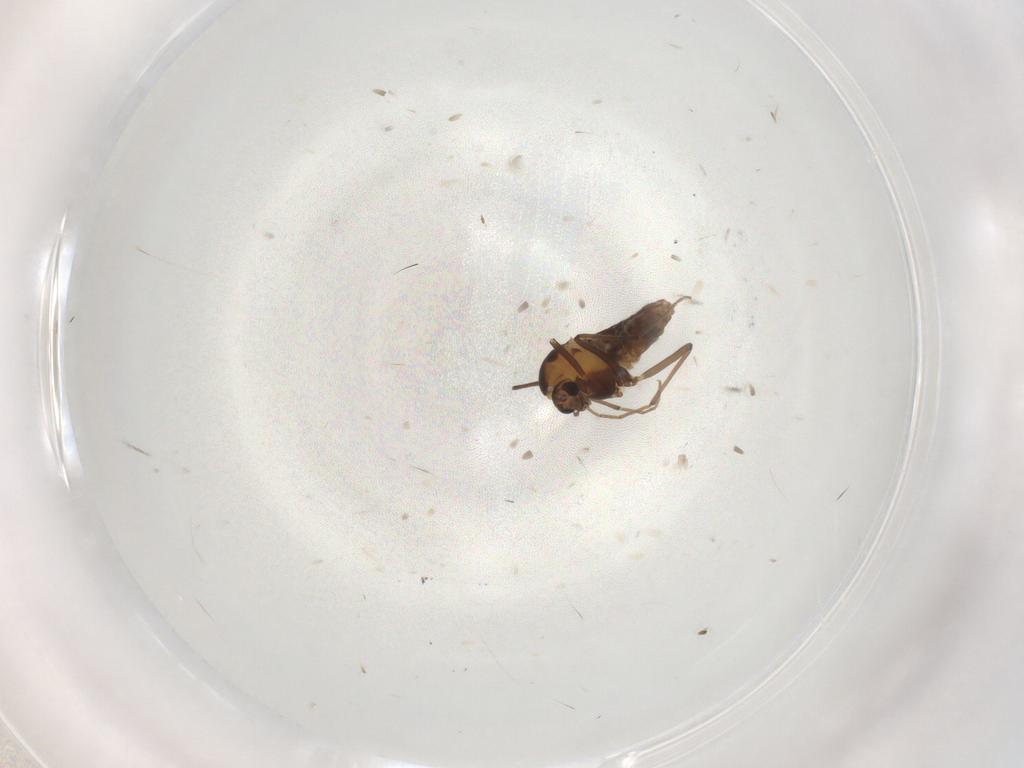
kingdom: Animalia
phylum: Arthropoda
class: Insecta
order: Diptera
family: Chironomidae
